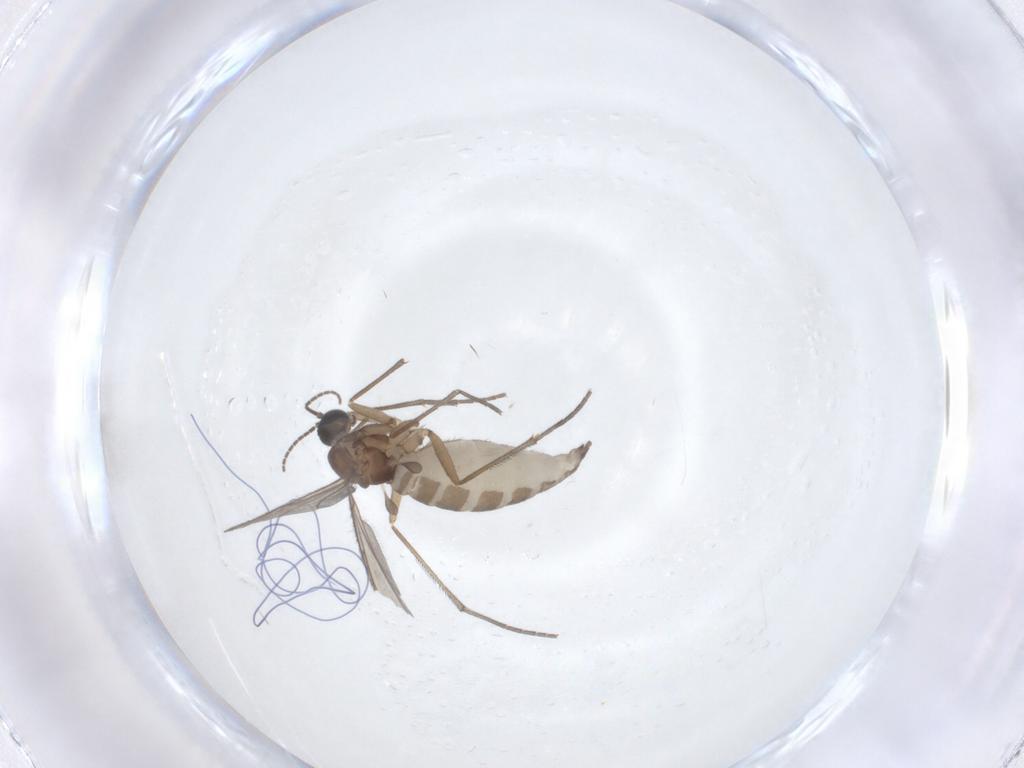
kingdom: Animalia
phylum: Arthropoda
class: Insecta
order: Diptera
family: Sciaridae
